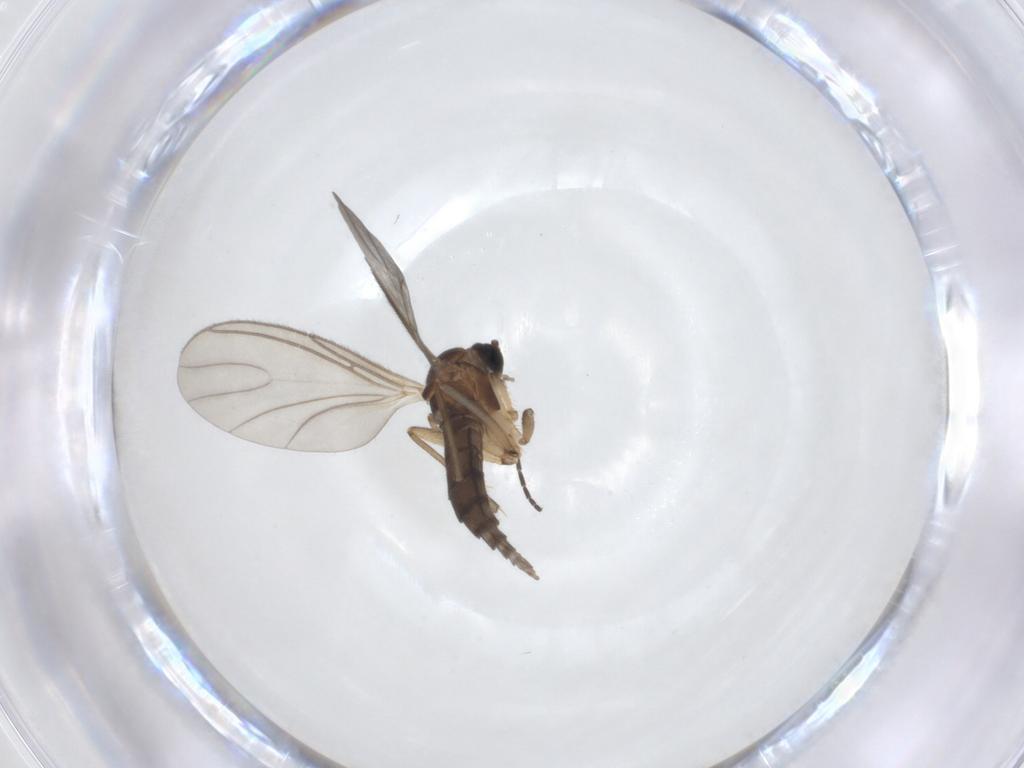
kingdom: Animalia
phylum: Arthropoda
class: Insecta
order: Diptera
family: Sciaridae
